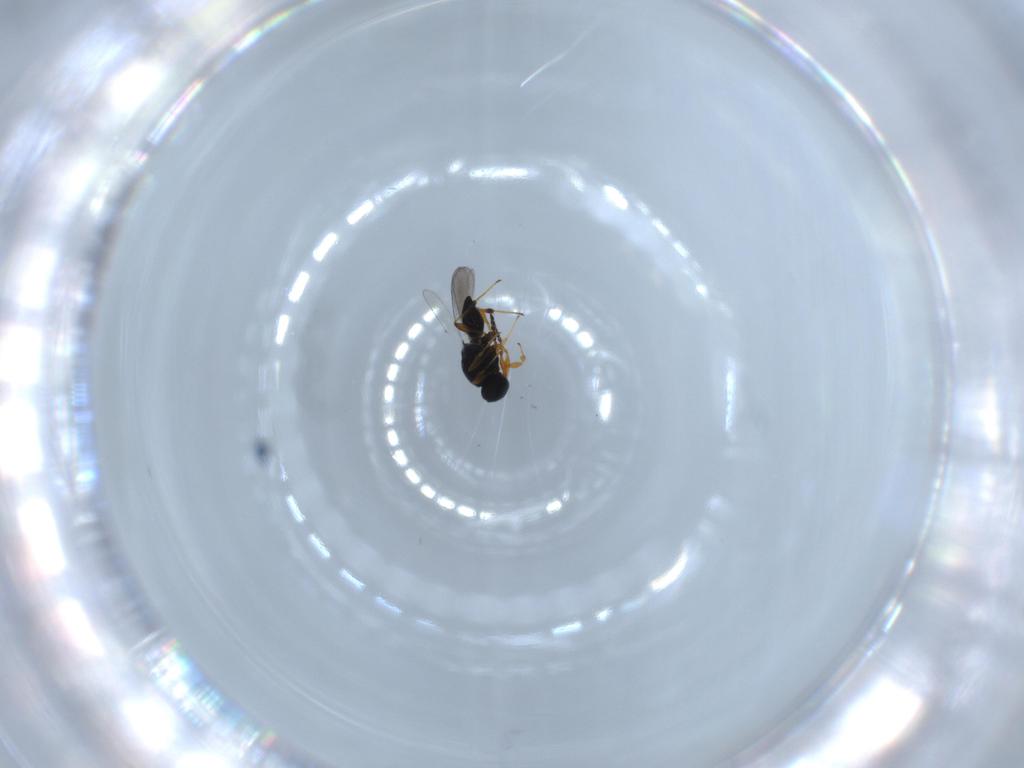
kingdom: Animalia
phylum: Arthropoda
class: Insecta
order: Hymenoptera
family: Platygastridae
